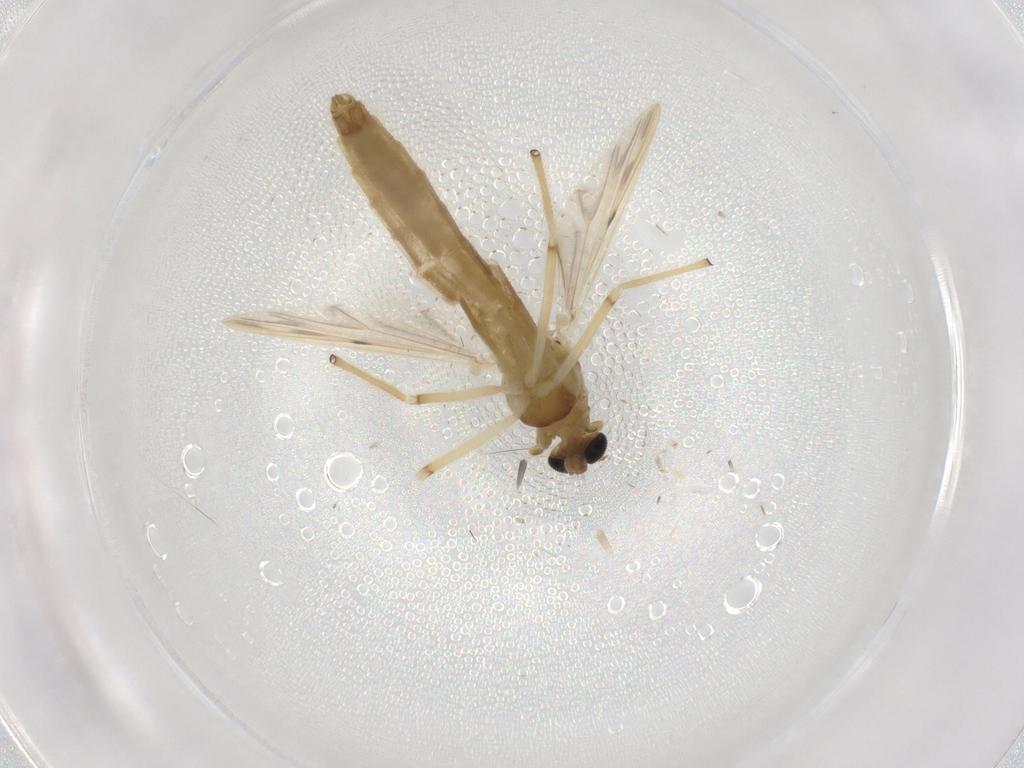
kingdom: Animalia
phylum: Arthropoda
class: Insecta
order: Diptera
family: Chironomidae
